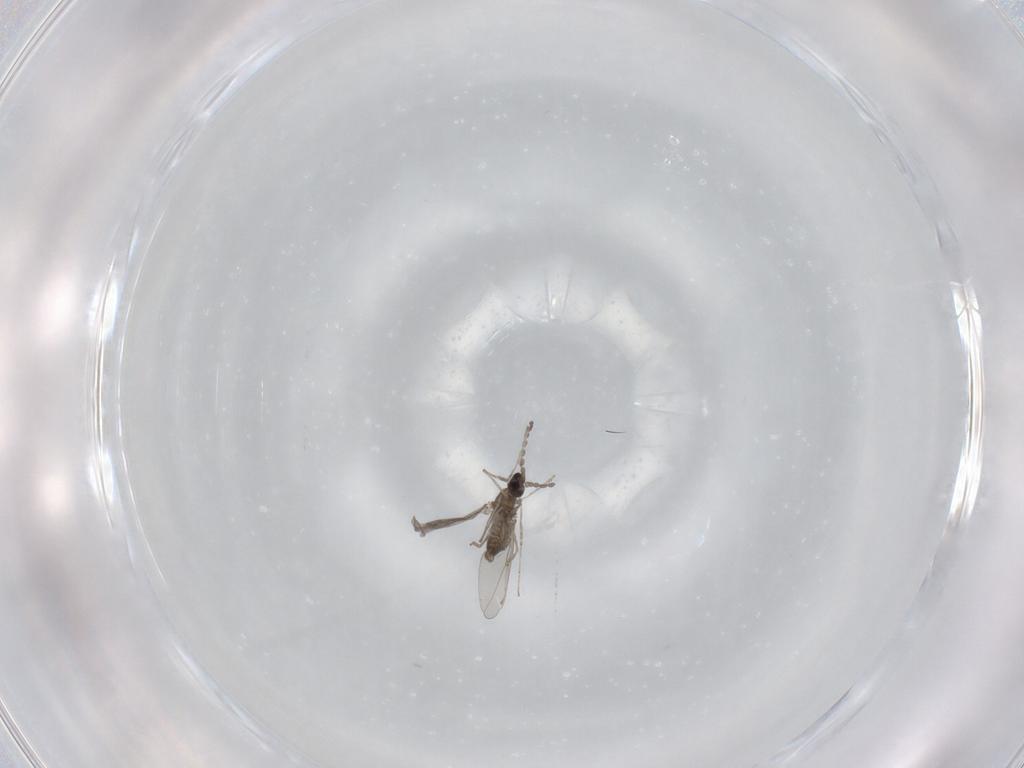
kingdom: Animalia
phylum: Arthropoda
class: Insecta
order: Diptera
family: Cecidomyiidae
